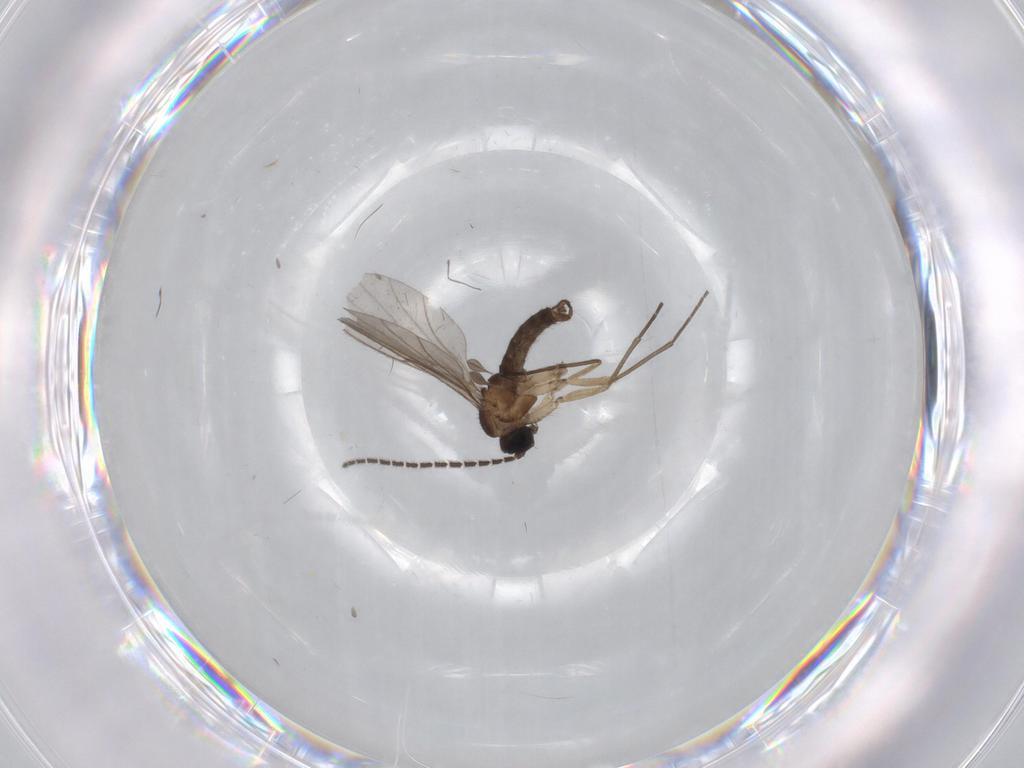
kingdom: Animalia
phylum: Arthropoda
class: Insecta
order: Diptera
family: Sciaridae
